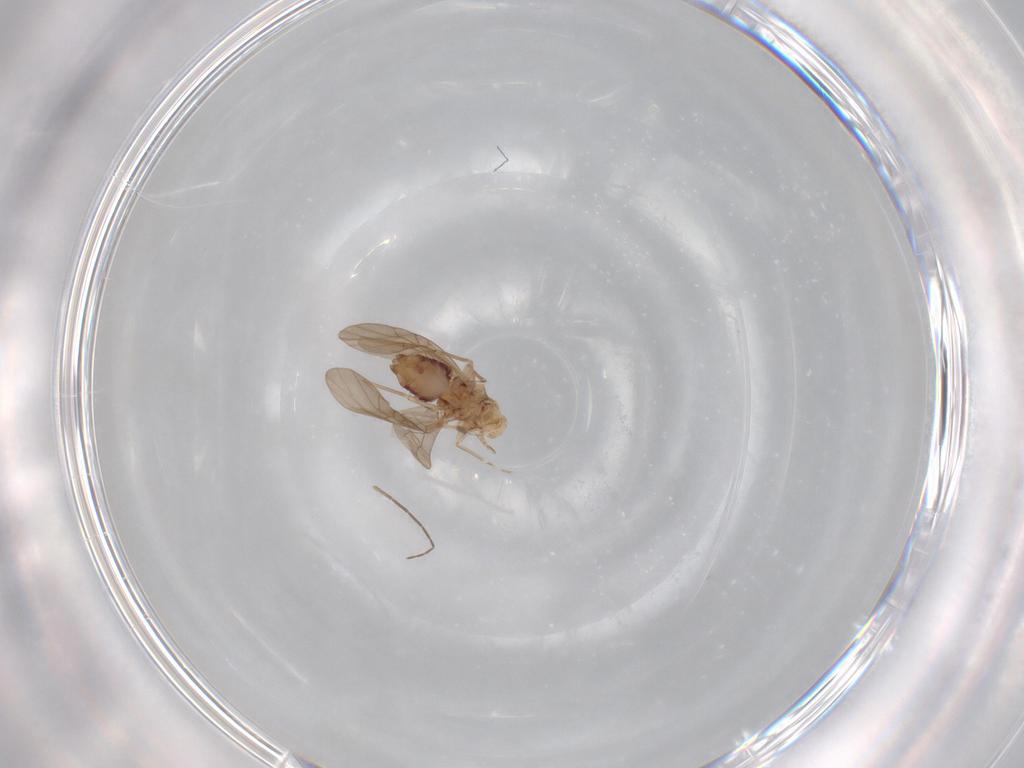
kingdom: Animalia
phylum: Arthropoda
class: Insecta
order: Psocodea
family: Lachesillidae
